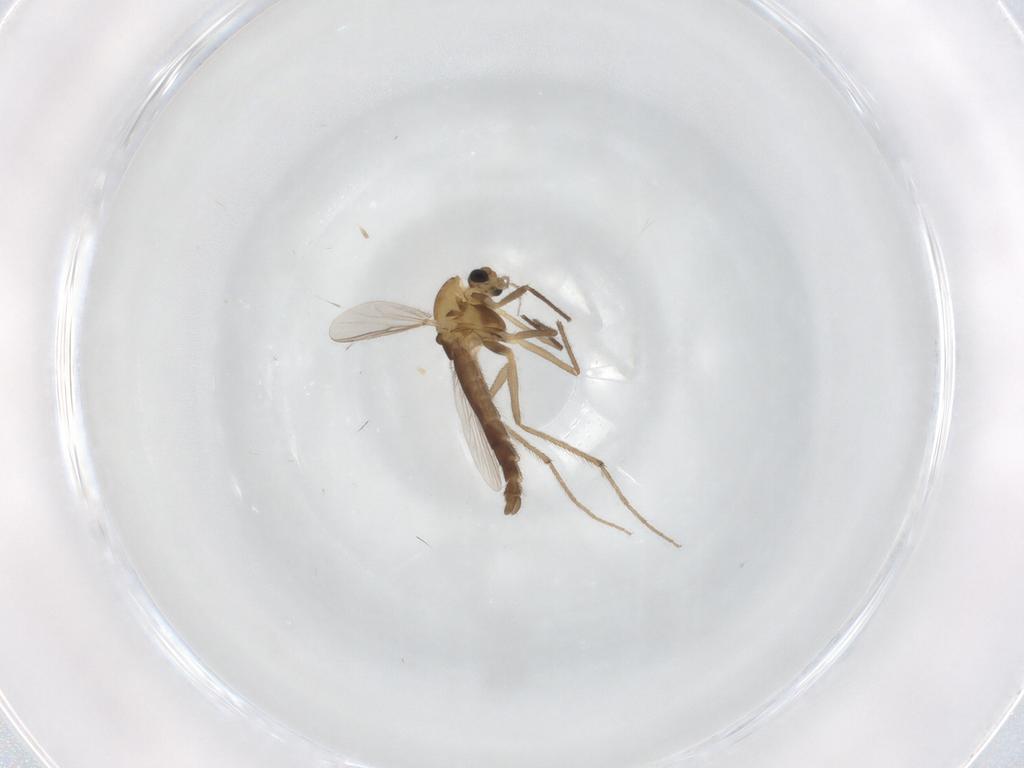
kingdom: Animalia
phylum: Arthropoda
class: Insecta
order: Diptera
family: Chironomidae
